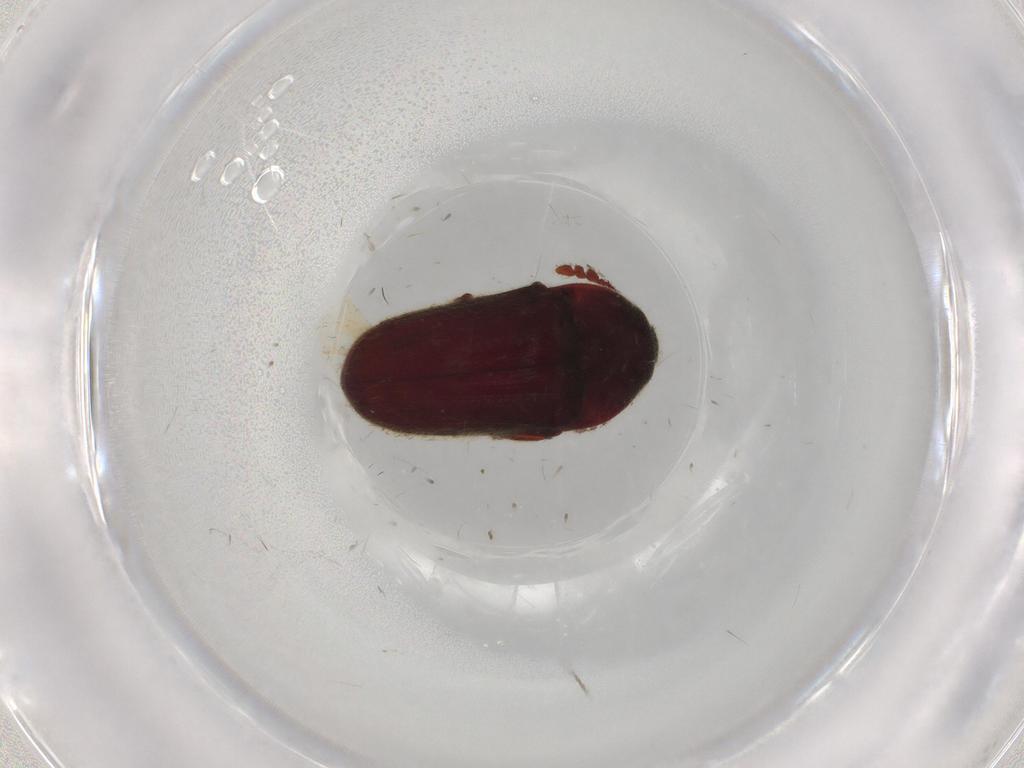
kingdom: Animalia
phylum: Arthropoda
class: Insecta
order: Coleoptera
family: Throscidae
